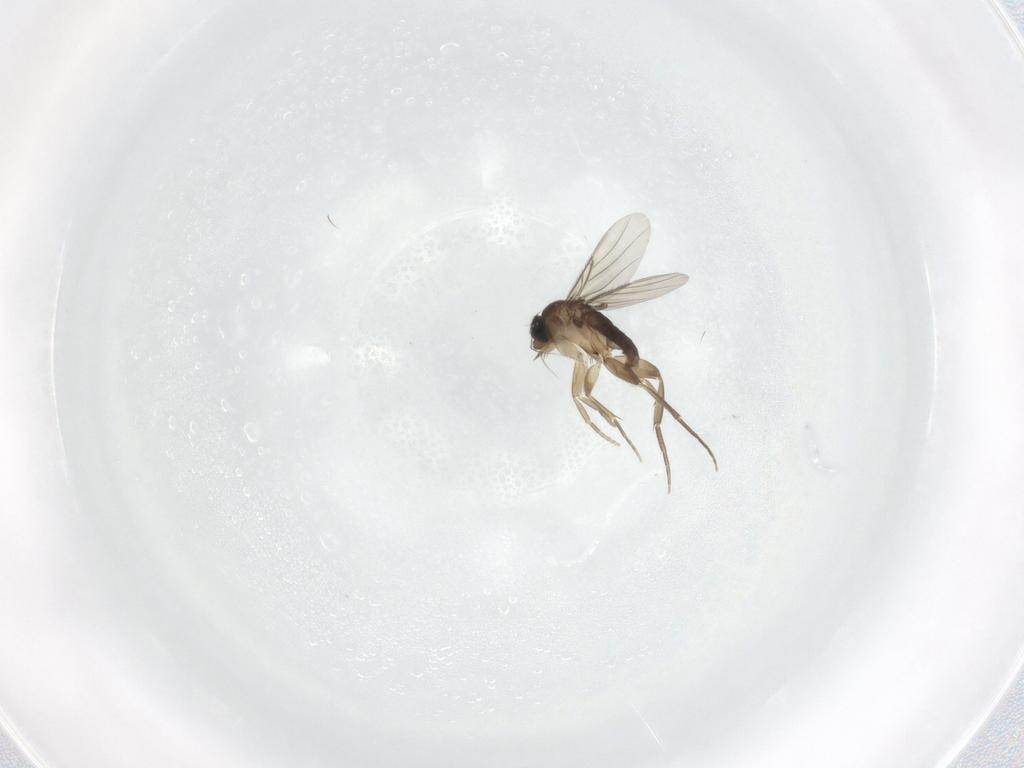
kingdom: Animalia
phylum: Arthropoda
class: Insecta
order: Diptera
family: Phoridae
